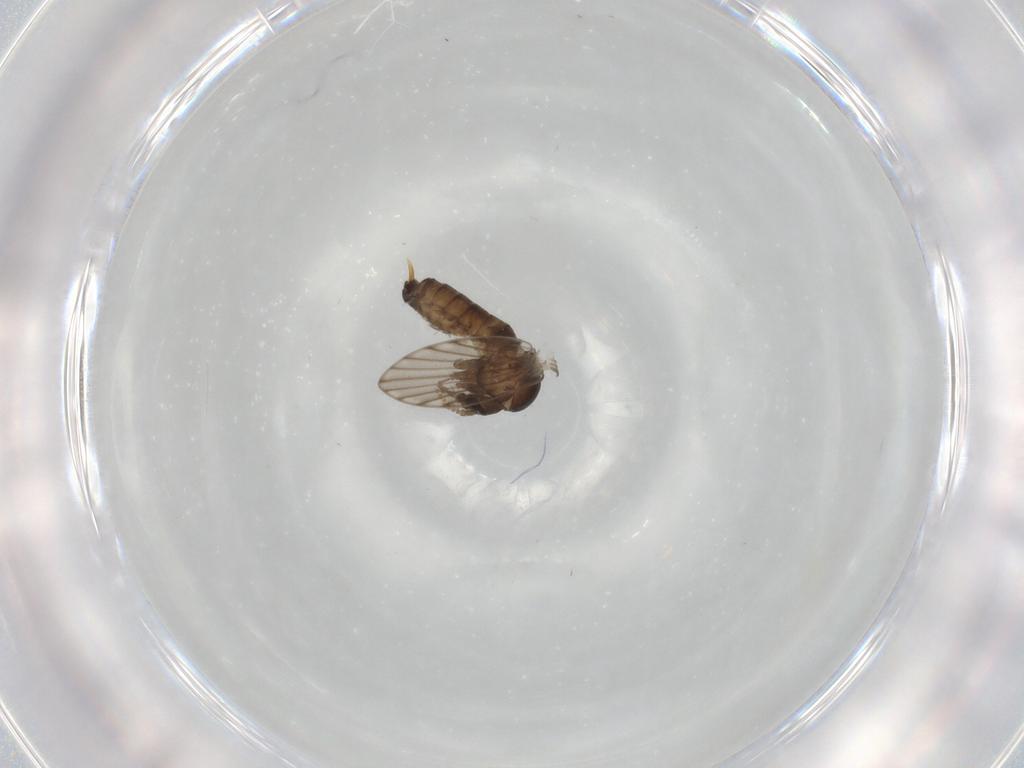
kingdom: Animalia
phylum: Arthropoda
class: Insecta
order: Diptera
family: Psychodidae
